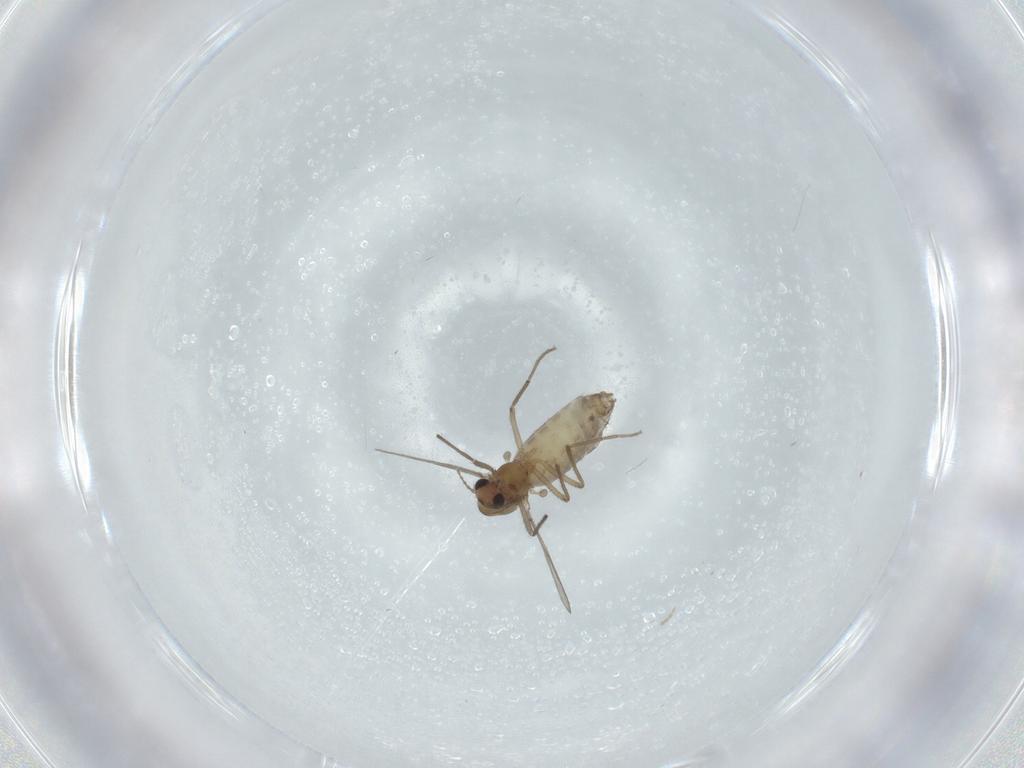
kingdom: Animalia
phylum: Arthropoda
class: Insecta
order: Diptera
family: Chironomidae
